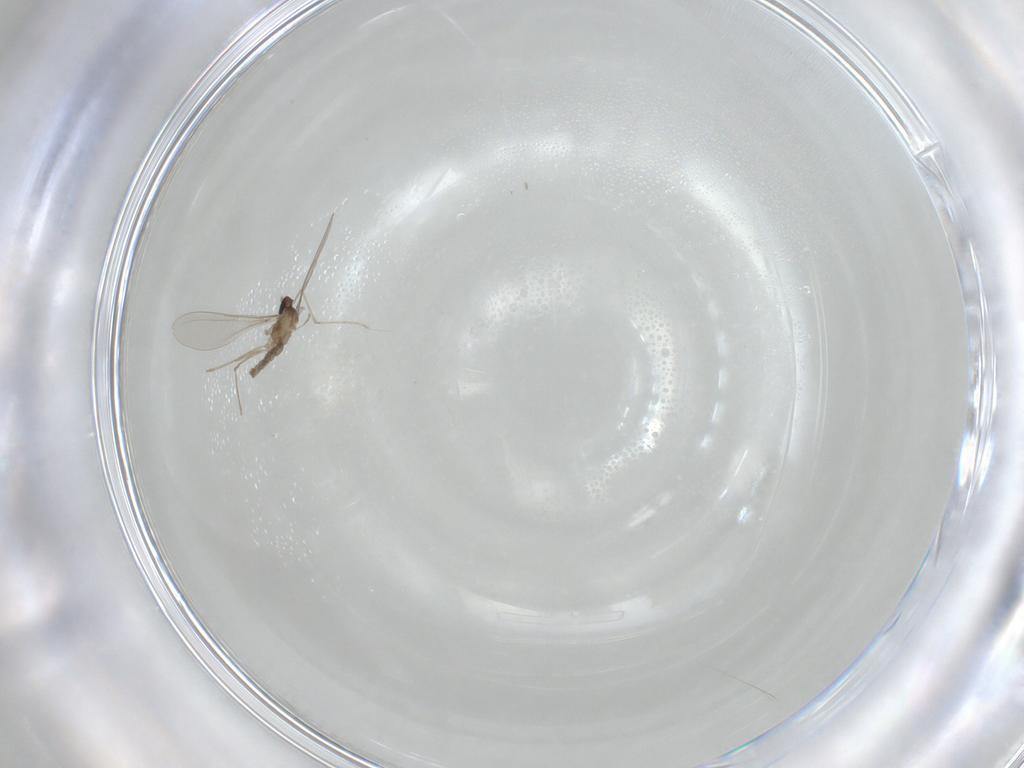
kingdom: Animalia
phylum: Arthropoda
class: Insecta
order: Diptera
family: Cecidomyiidae
